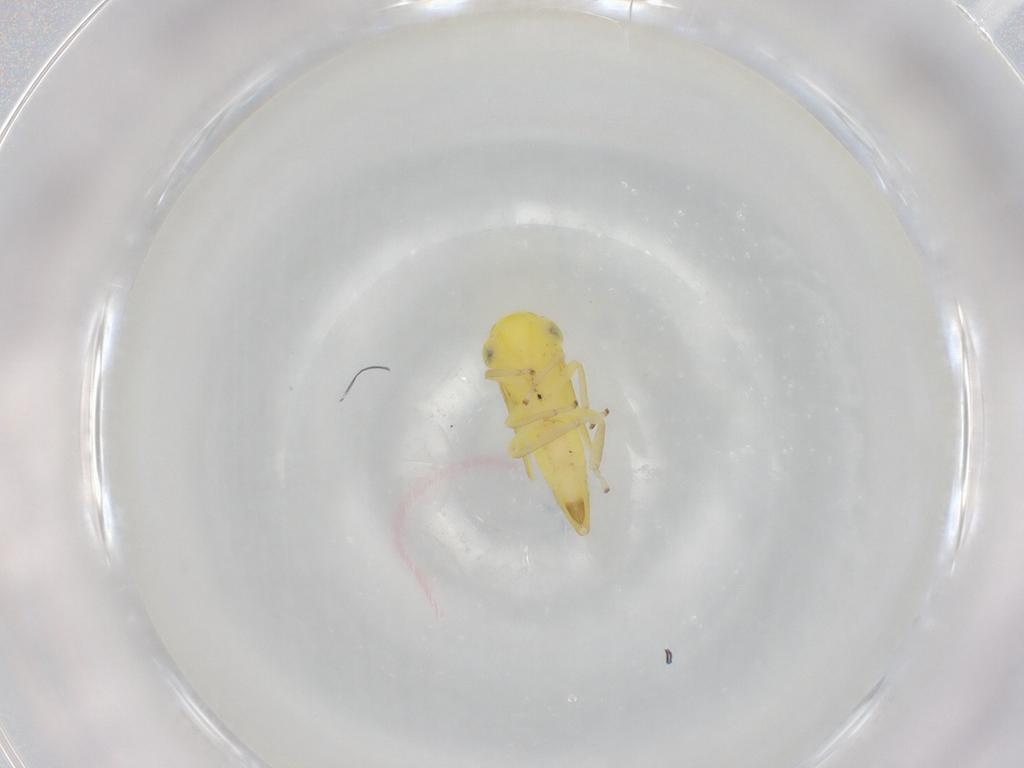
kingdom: Animalia
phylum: Arthropoda
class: Insecta
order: Hemiptera
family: Cicadellidae
